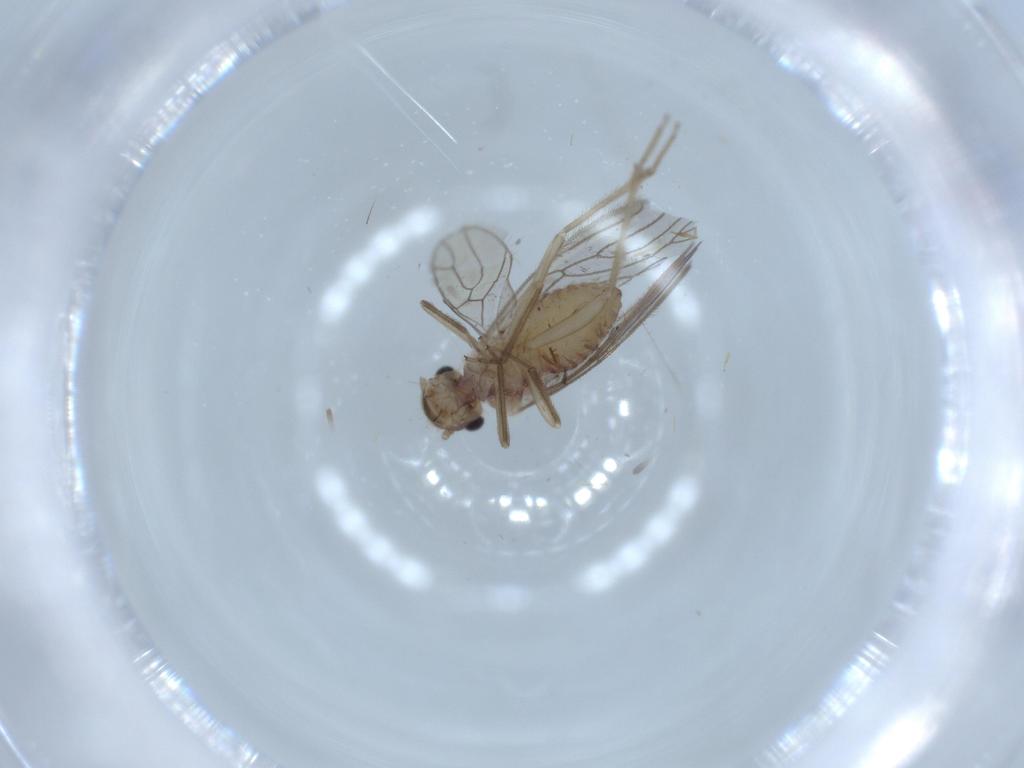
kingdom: Animalia
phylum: Arthropoda
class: Insecta
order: Psocodea
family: Cladiopsocidae
